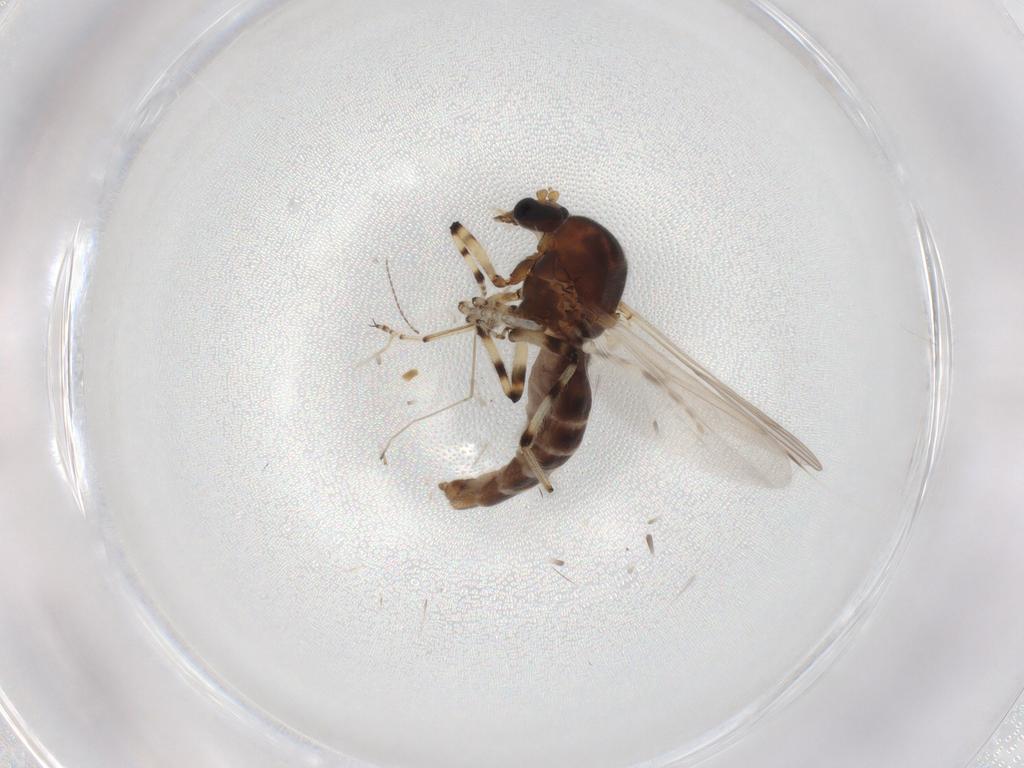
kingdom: Animalia
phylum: Arthropoda
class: Insecta
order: Diptera
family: Ceratopogonidae
